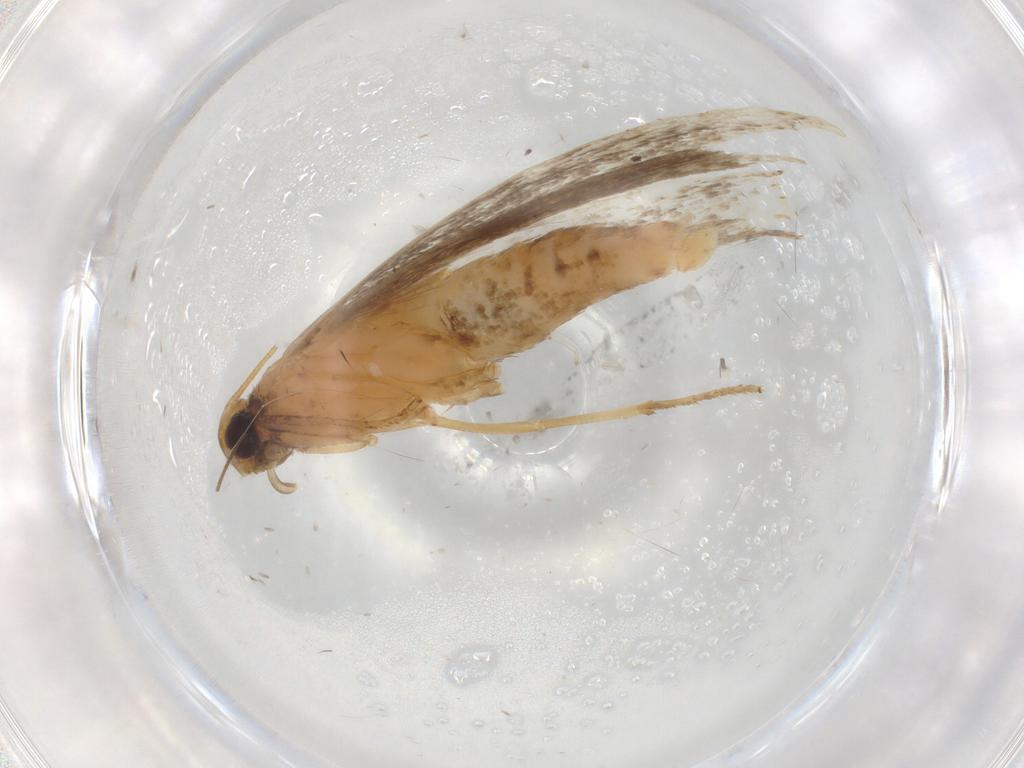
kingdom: Animalia
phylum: Arthropoda
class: Insecta
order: Lepidoptera
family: Gelechiidae
